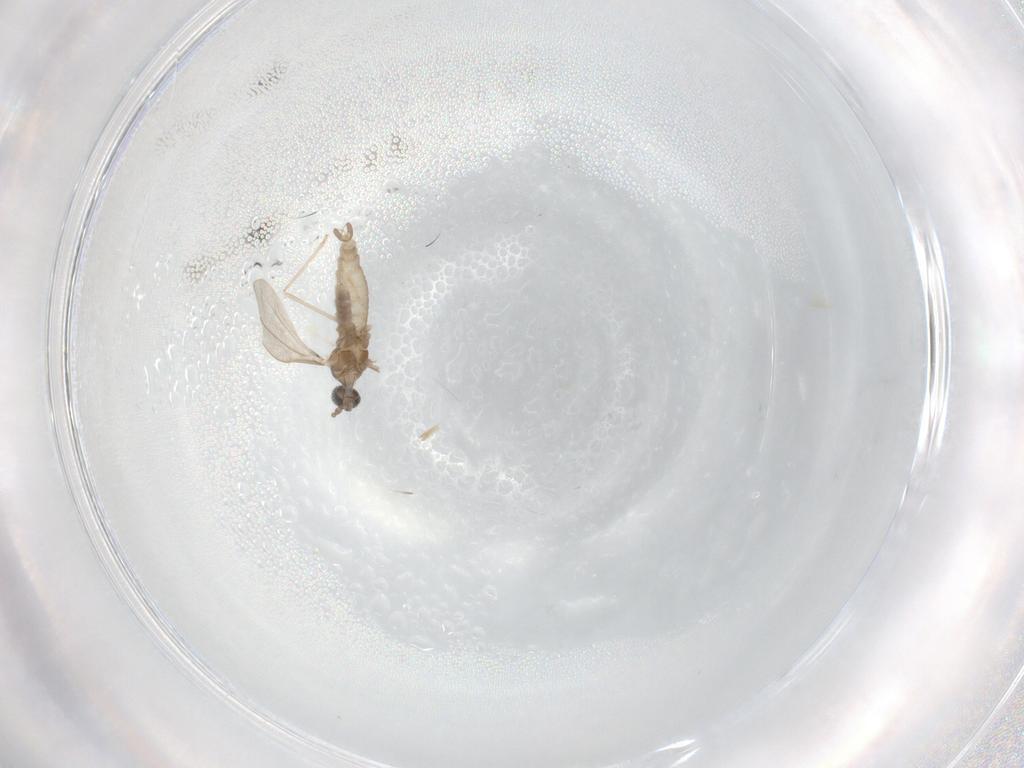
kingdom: Animalia
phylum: Arthropoda
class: Insecta
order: Diptera
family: Cecidomyiidae
